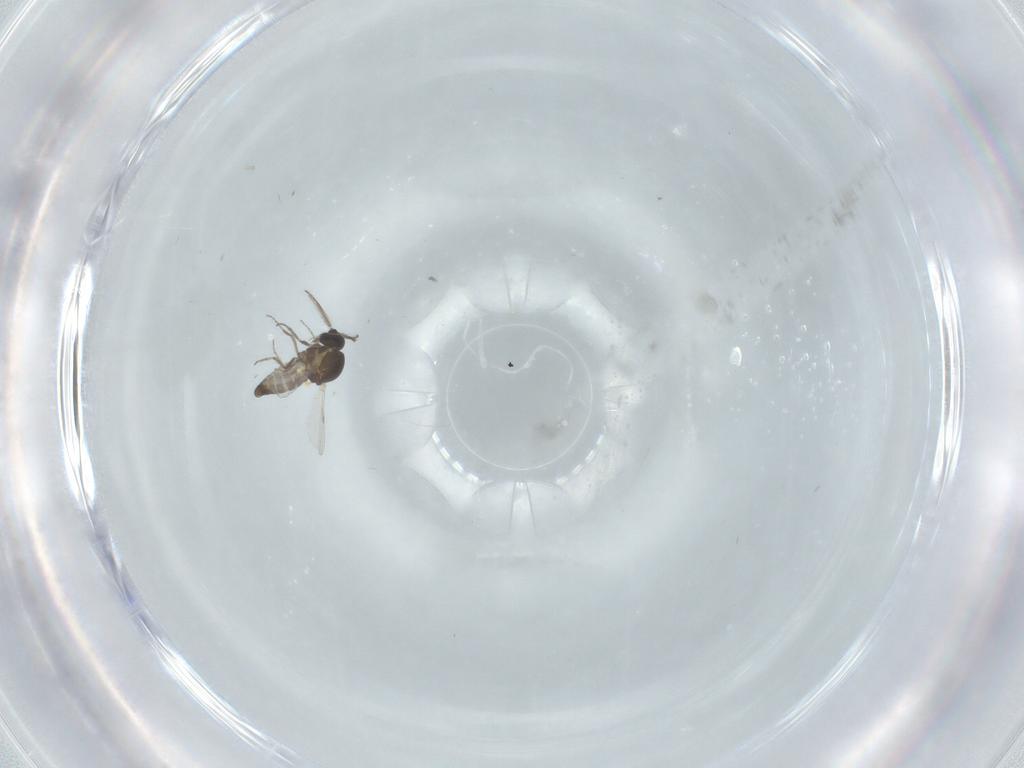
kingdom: Animalia
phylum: Arthropoda
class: Insecta
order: Diptera
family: Ceratopogonidae
